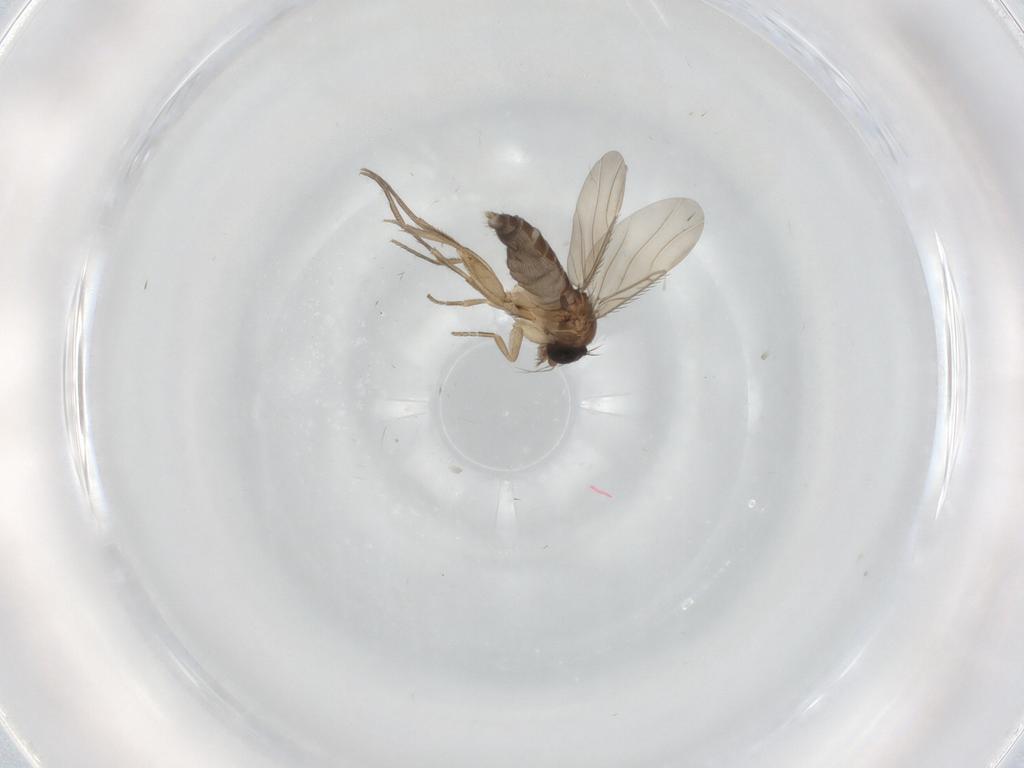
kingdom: Animalia
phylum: Arthropoda
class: Insecta
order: Diptera
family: Phoridae
